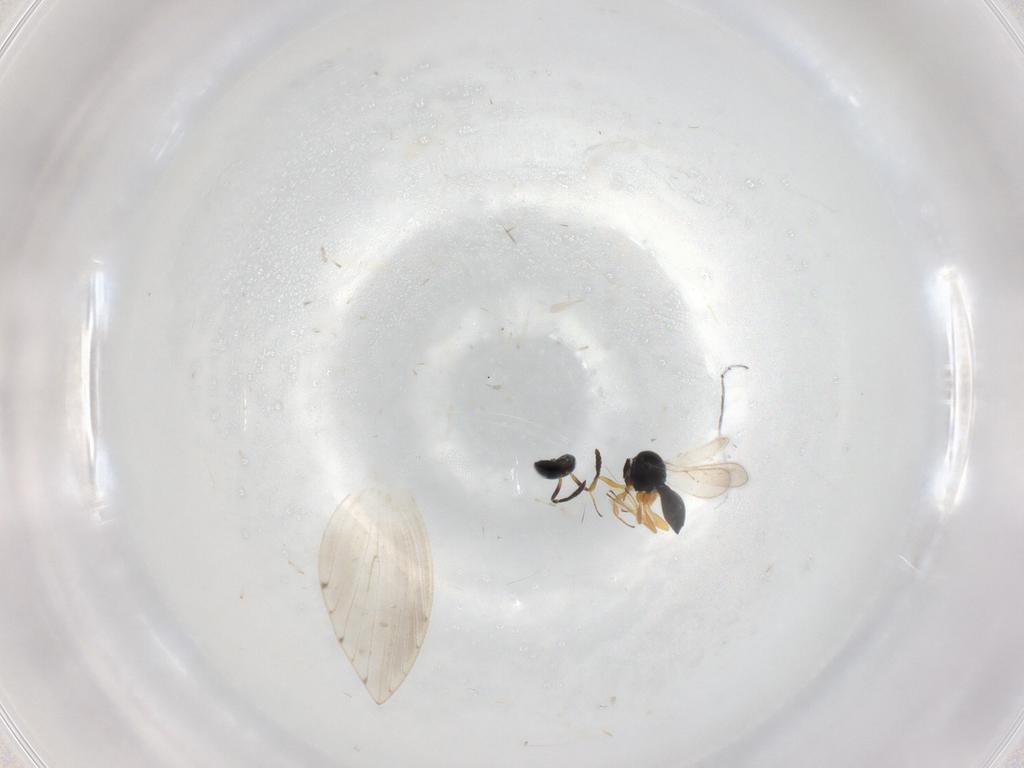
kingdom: Animalia
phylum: Arthropoda
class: Insecta
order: Hymenoptera
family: Scelionidae
